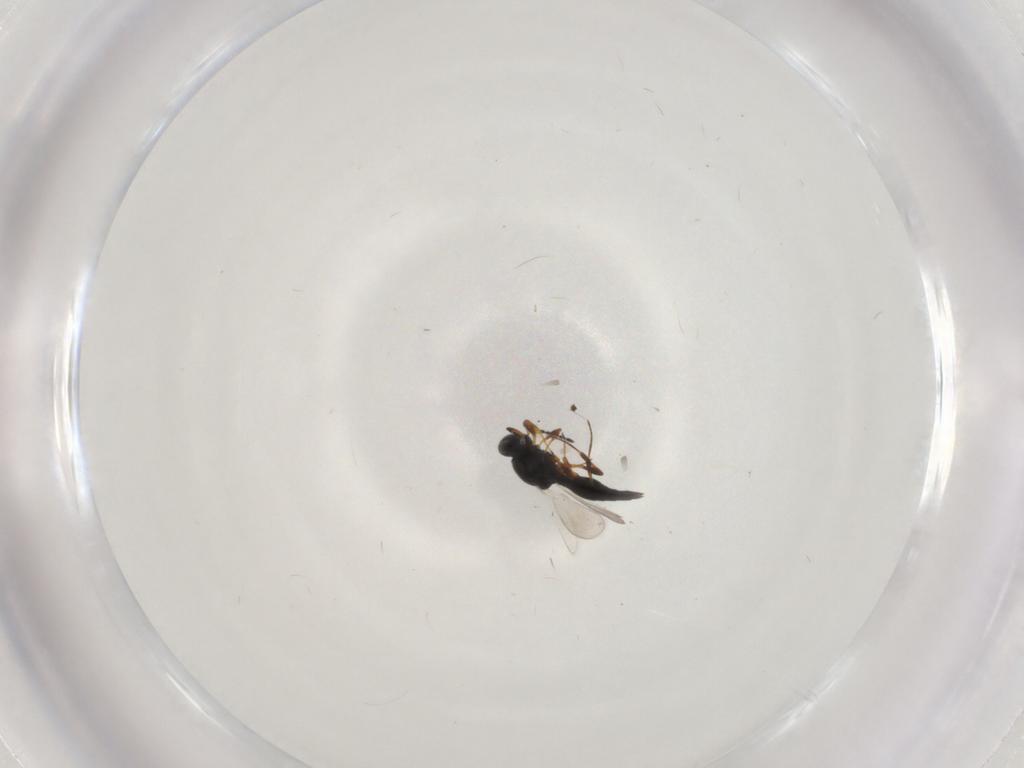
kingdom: Animalia
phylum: Arthropoda
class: Insecta
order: Hymenoptera
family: Platygastridae
